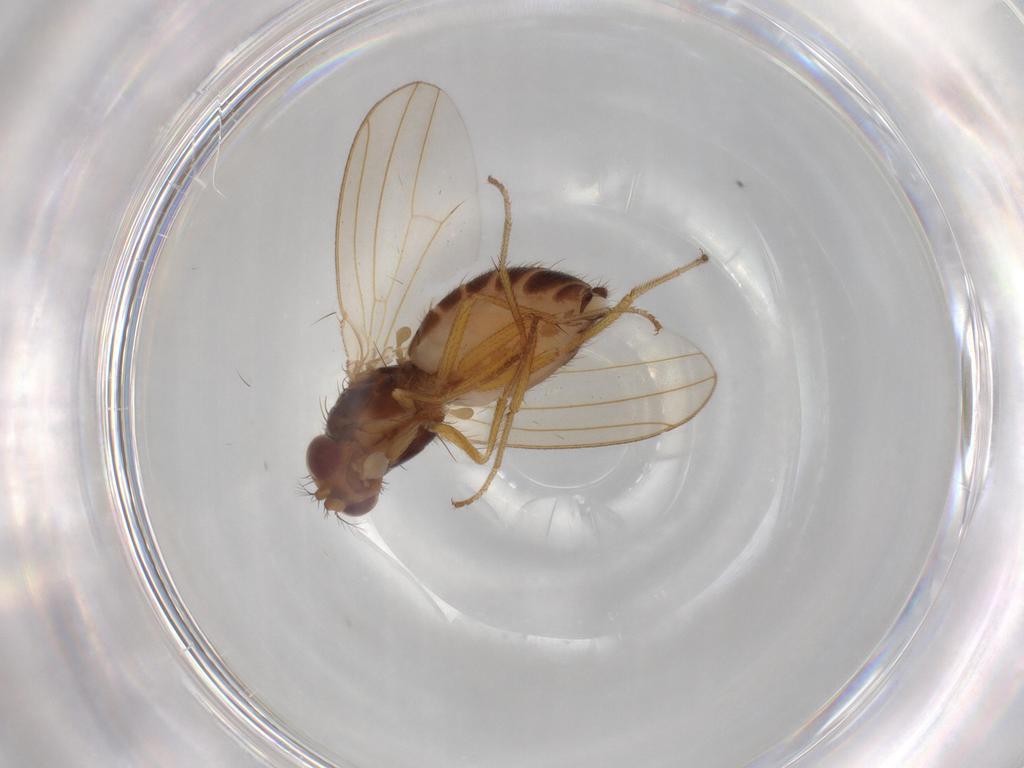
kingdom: Animalia
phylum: Arthropoda
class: Insecta
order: Diptera
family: Drosophilidae
